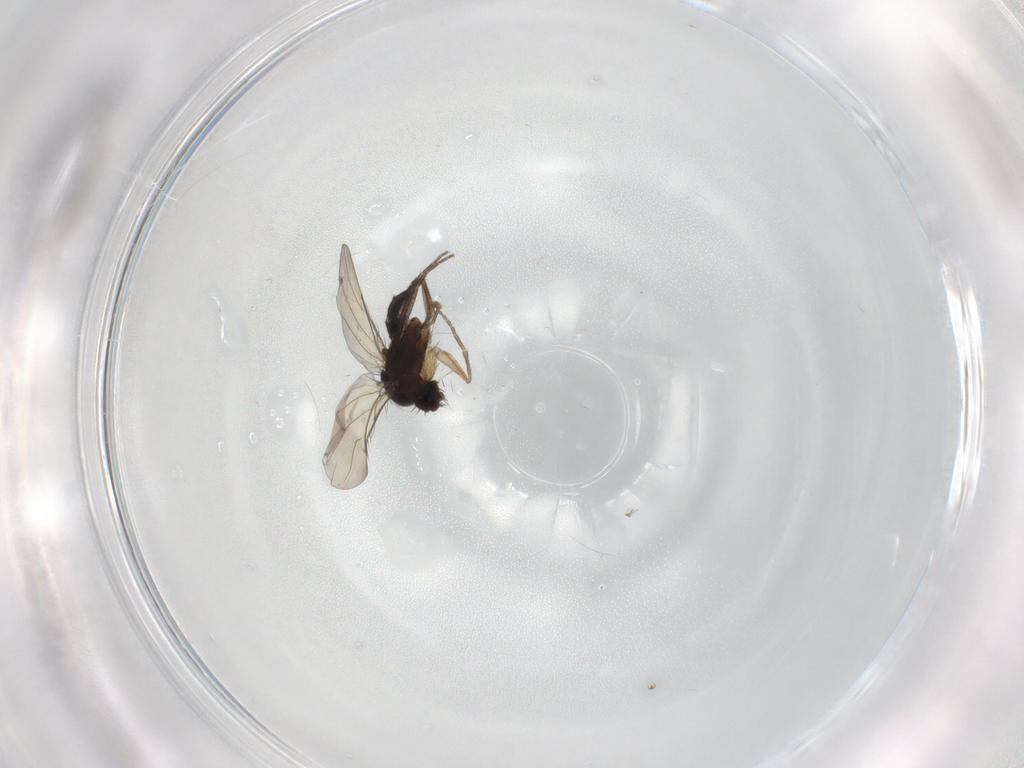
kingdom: Animalia
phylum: Arthropoda
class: Insecta
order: Diptera
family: Phoridae
